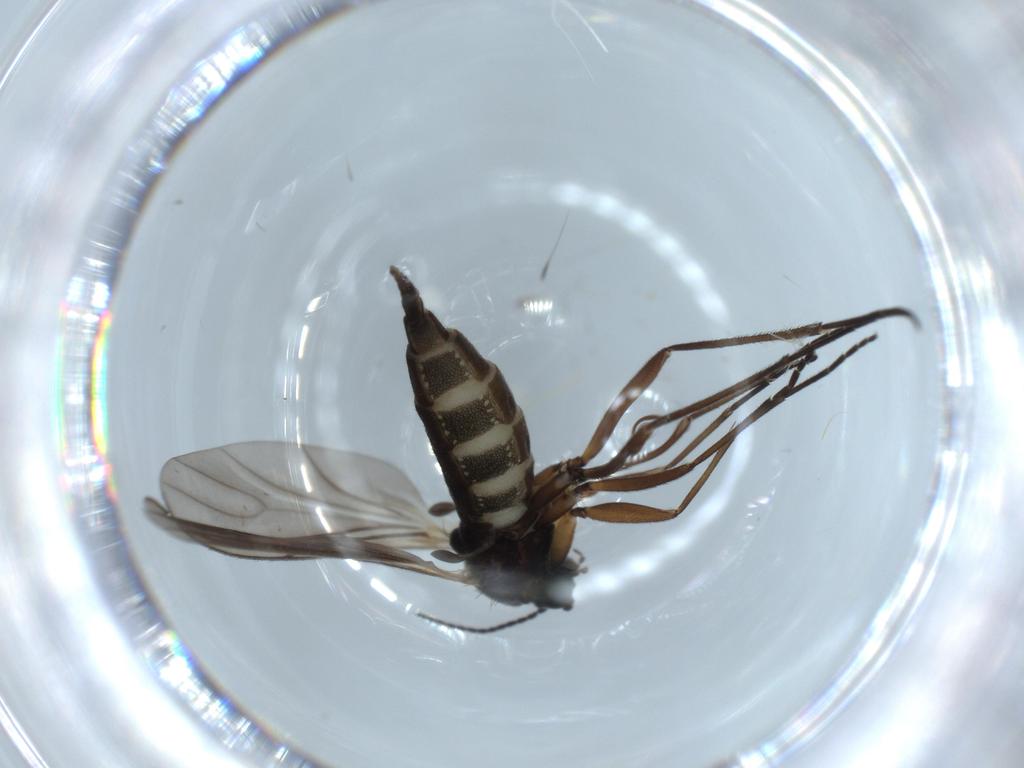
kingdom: Animalia
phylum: Arthropoda
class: Insecta
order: Diptera
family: Sciaridae
